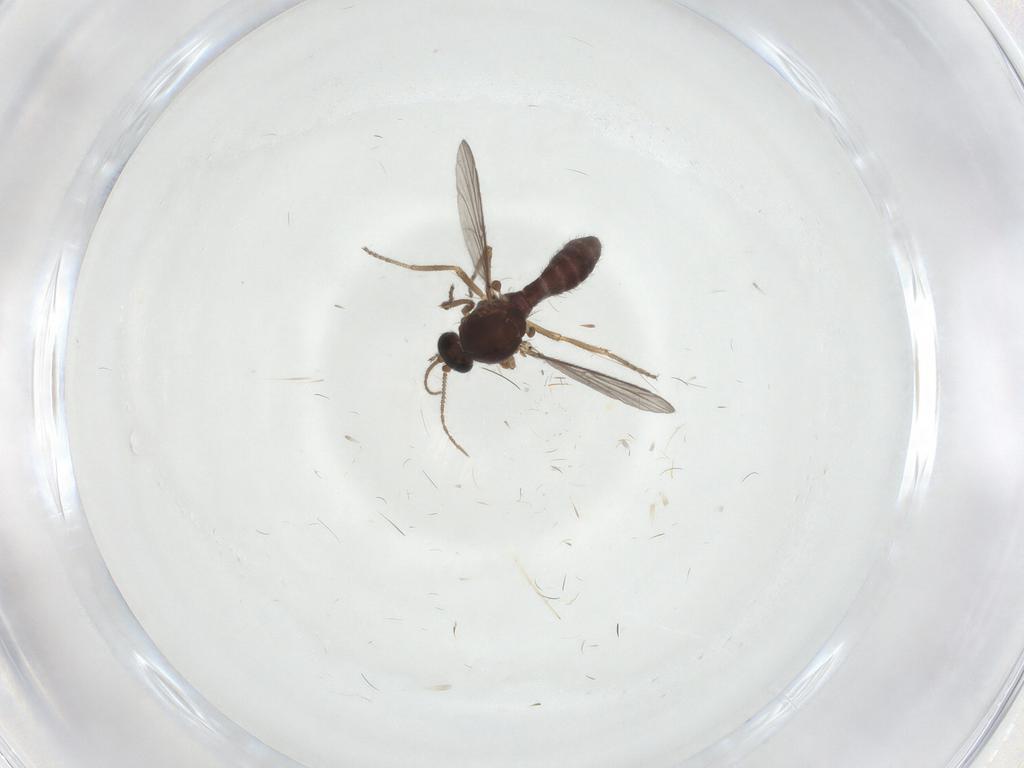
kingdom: Animalia
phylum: Arthropoda
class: Insecta
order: Diptera
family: Ceratopogonidae
